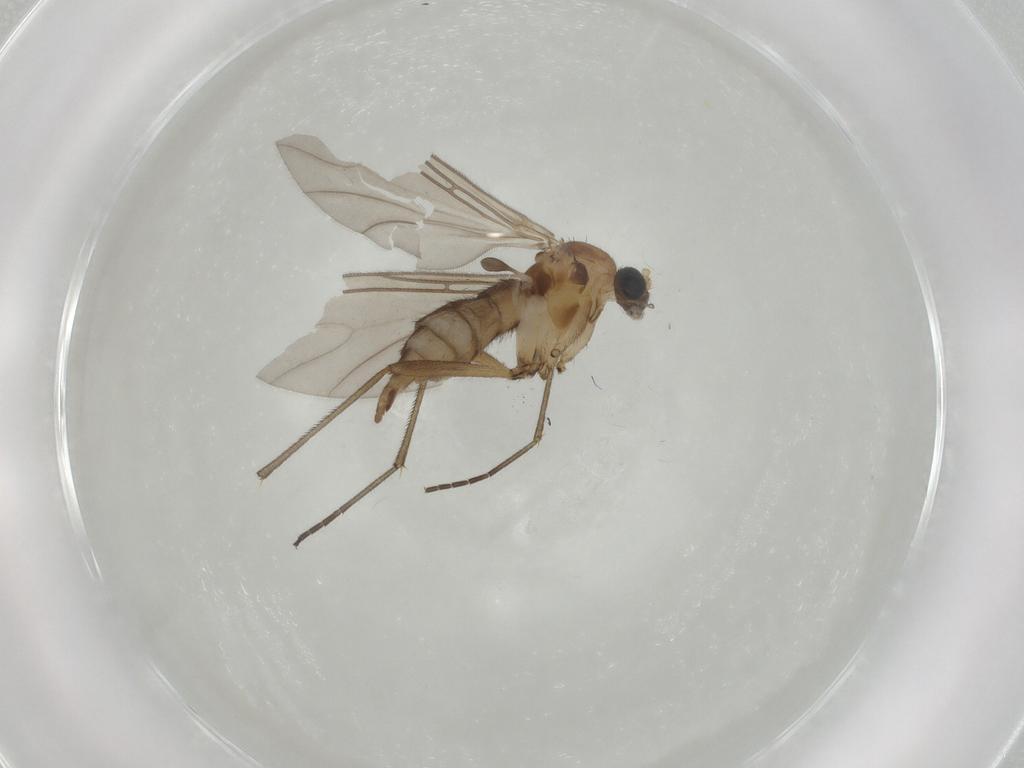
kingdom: Animalia
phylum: Arthropoda
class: Insecta
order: Diptera
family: Sciaridae
